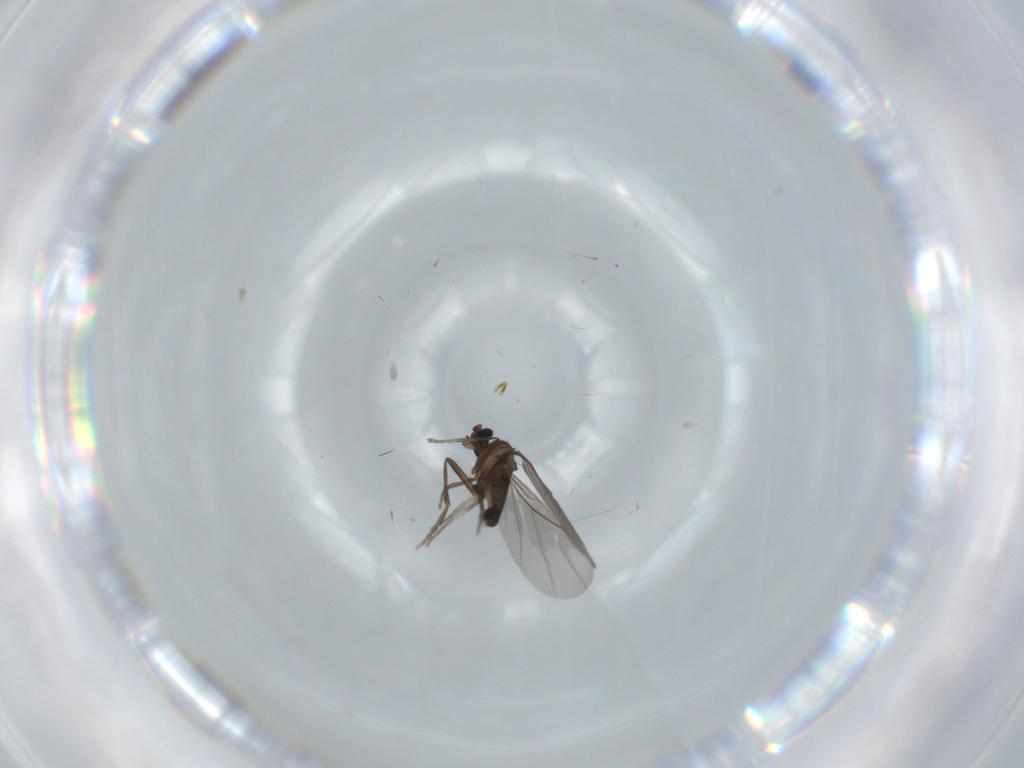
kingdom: Animalia
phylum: Arthropoda
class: Insecta
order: Diptera
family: Phoridae
